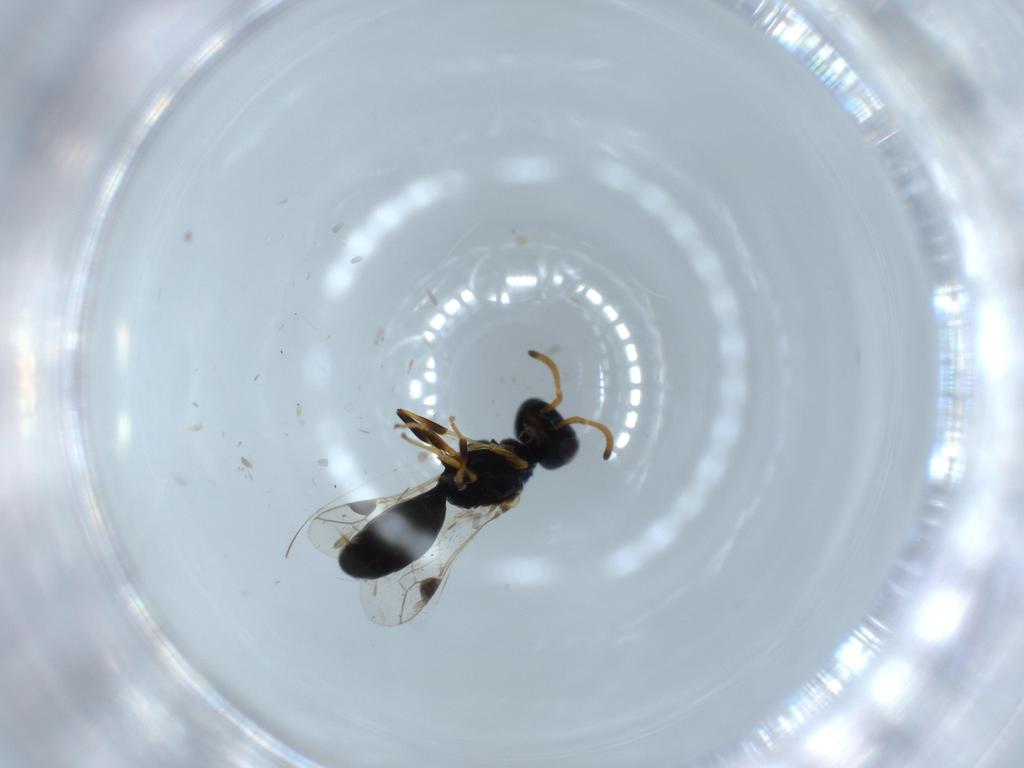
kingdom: Animalia
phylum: Arthropoda
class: Insecta
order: Hymenoptera
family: Pemphredonidae
